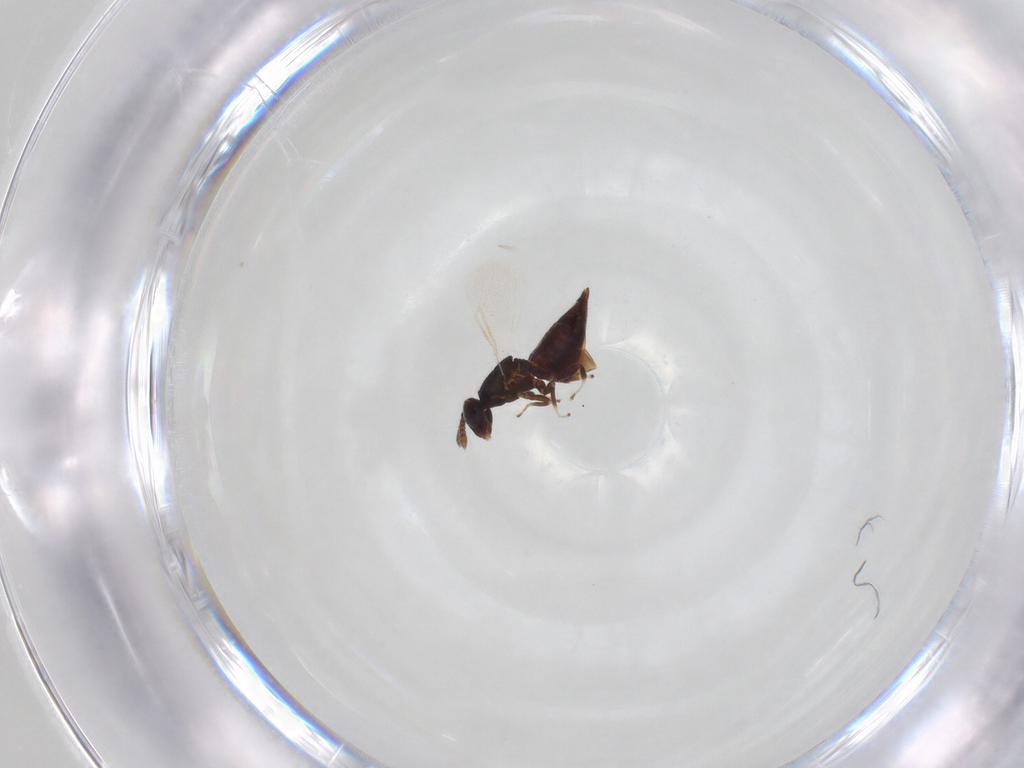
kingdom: Animalia
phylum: Arthropoda
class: Insecta
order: Hymenoptera
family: Trichogrammatidae
